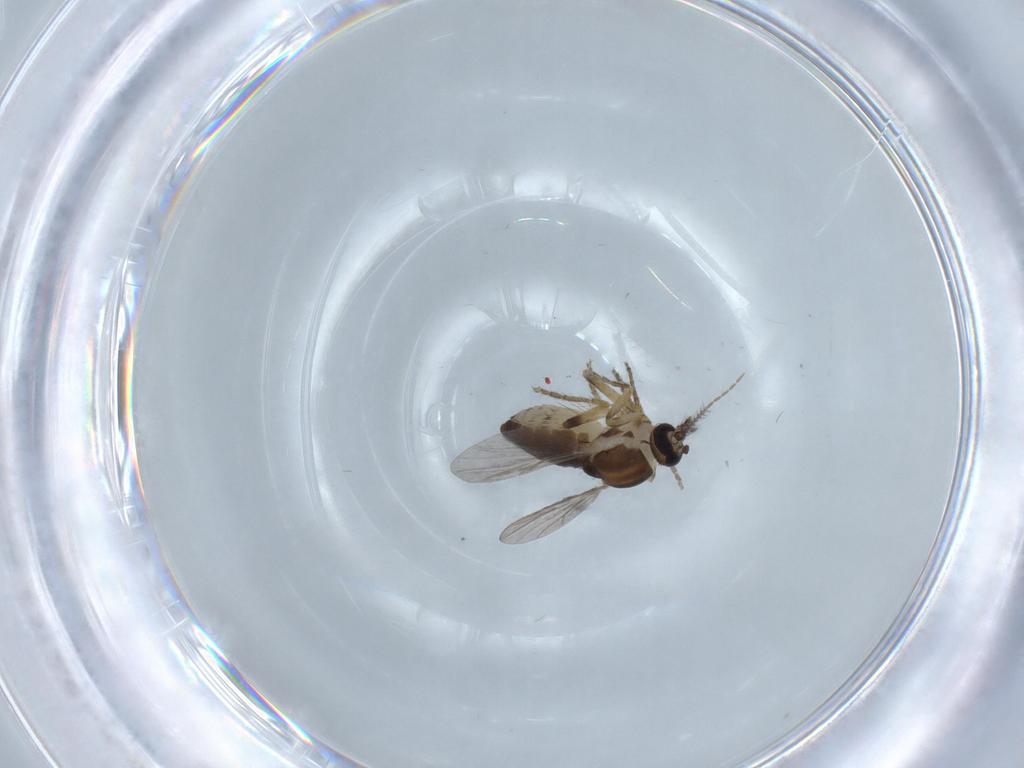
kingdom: Animalia
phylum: Arthropoda
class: Insecta
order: Diptera
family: Ceratopogonidae
